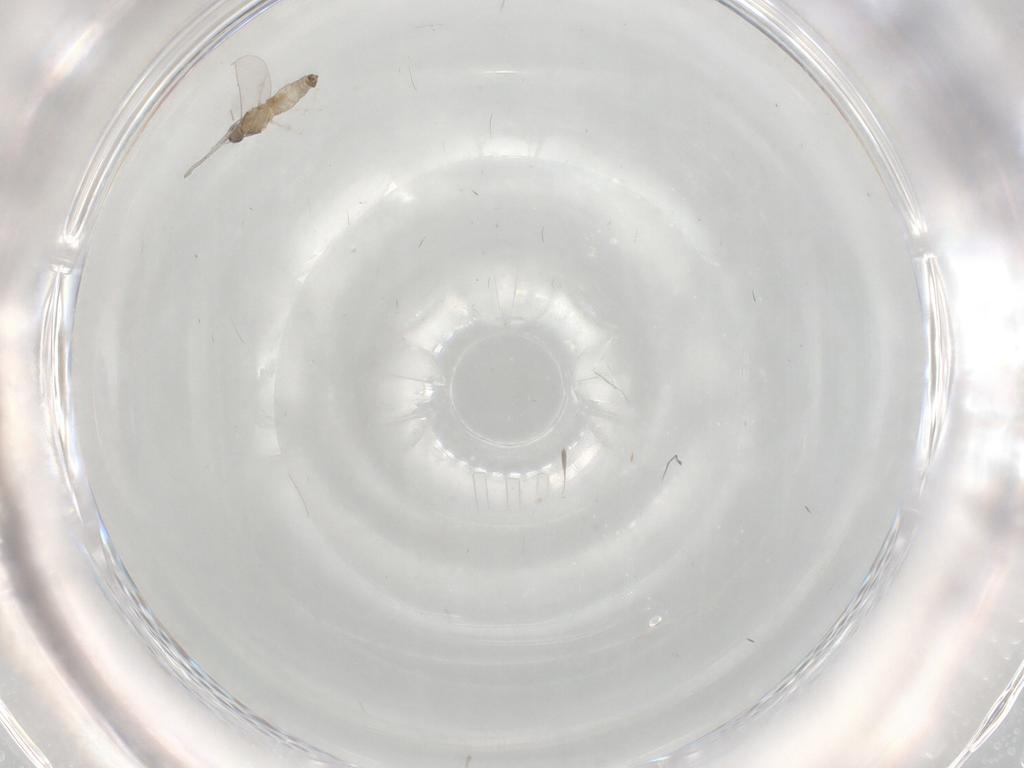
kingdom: Animalia
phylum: Arthropoda
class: Insecta
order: Diptera
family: Cecidomyiidae
